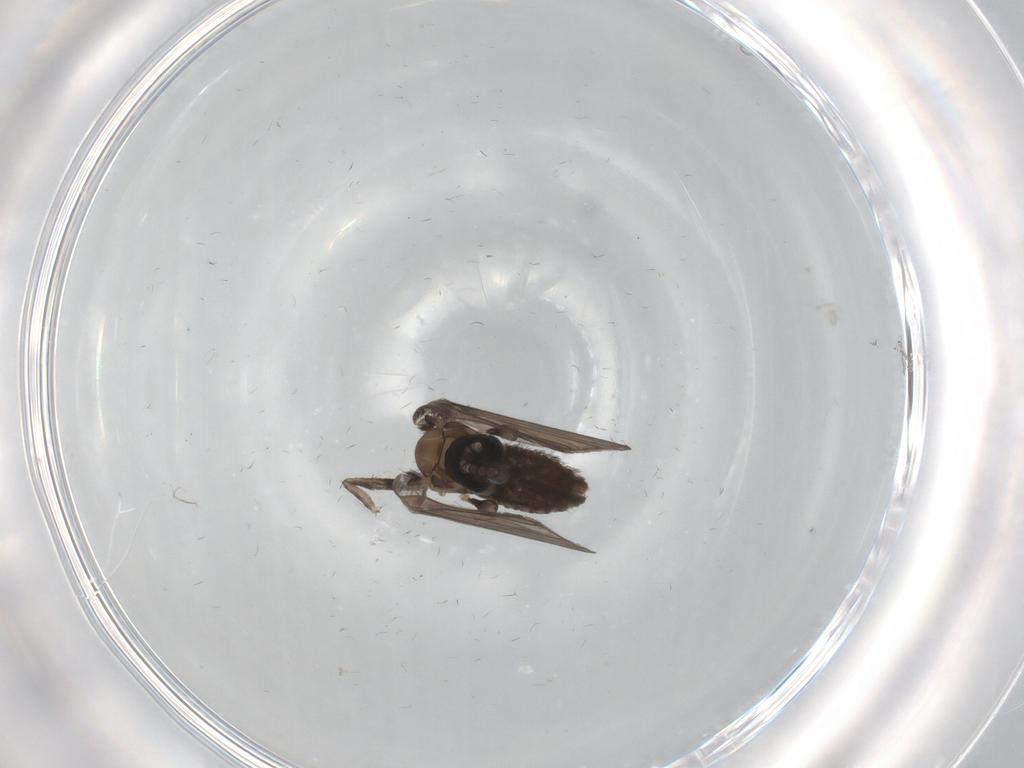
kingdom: Animalia
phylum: Arthropoda
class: Insecta
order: Diptera
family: Psychodidae
